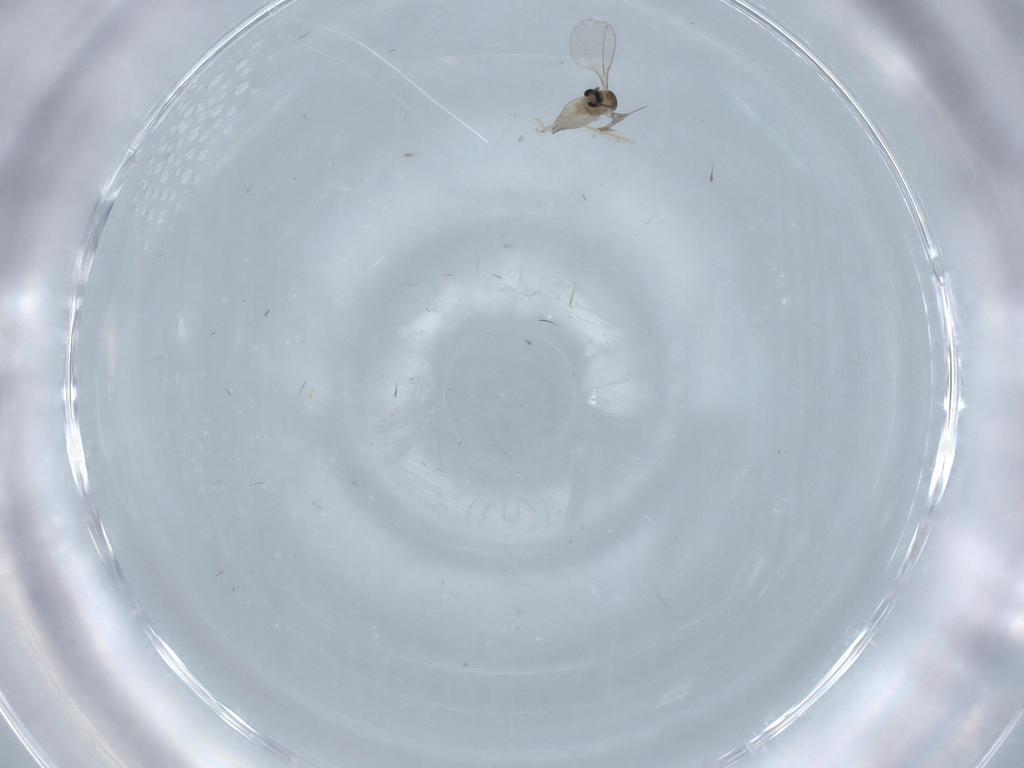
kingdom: Animalia
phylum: Arthropoda
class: Insecta
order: Diptera
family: Cecidomyiidae
